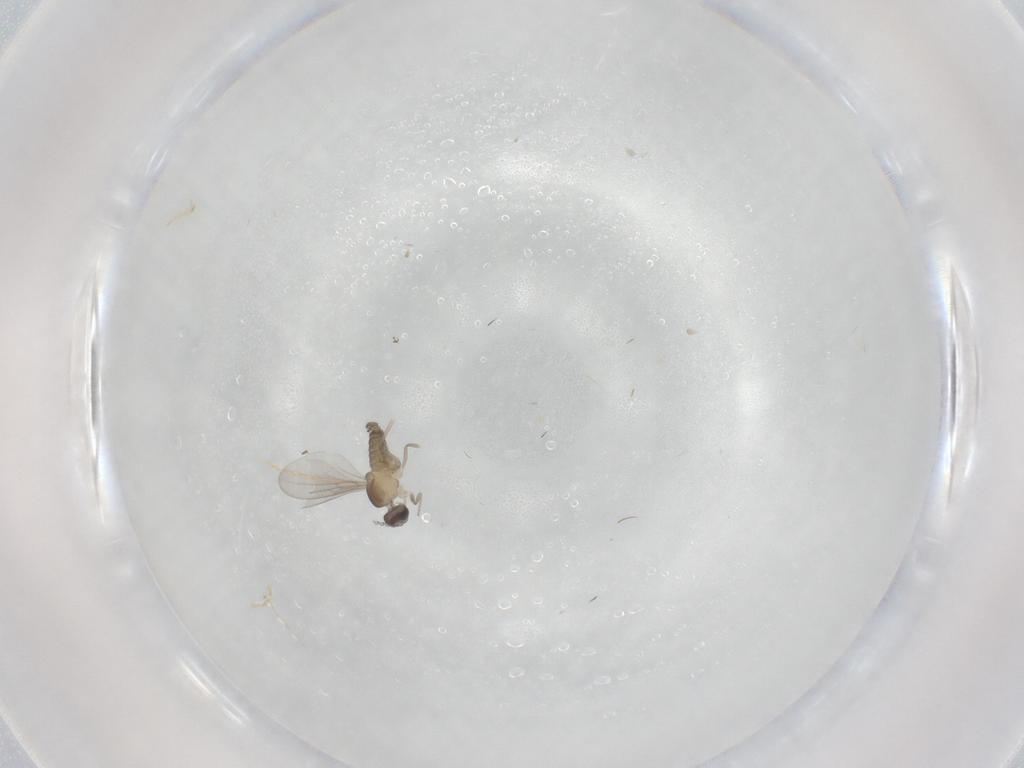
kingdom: Animalia
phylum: Arthropoda
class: Insecta
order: Diptera
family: Cecidomyiidae
